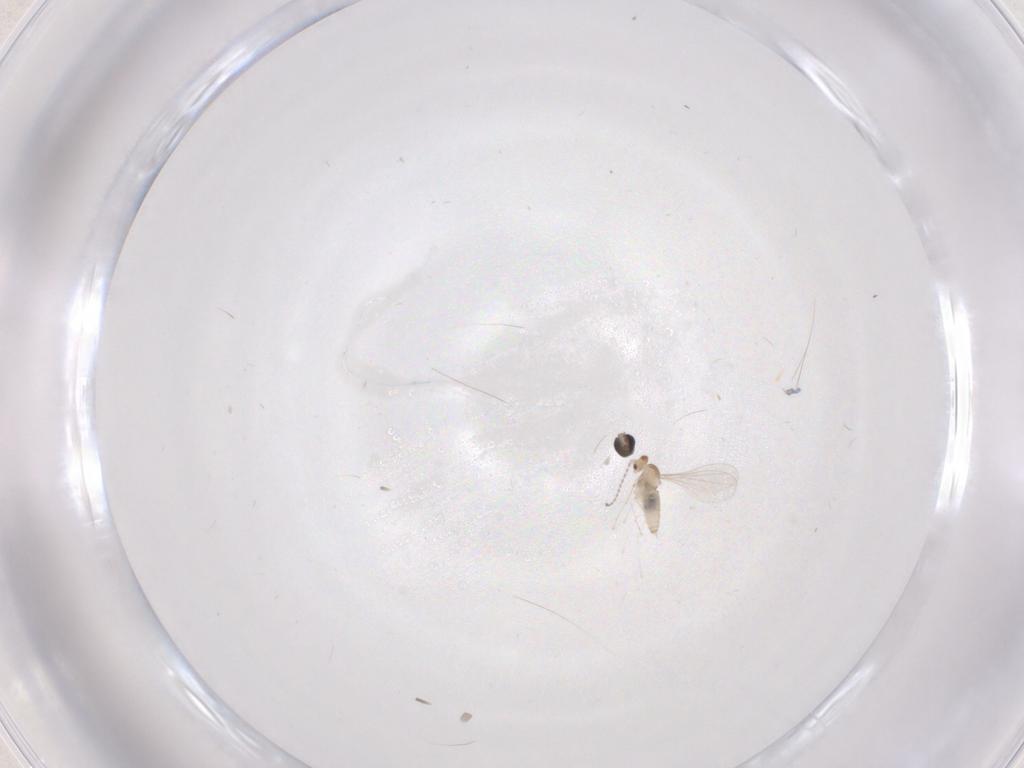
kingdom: Animalia
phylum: Arthropoda
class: Insecta
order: Diptera
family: Cecidomyiidae
